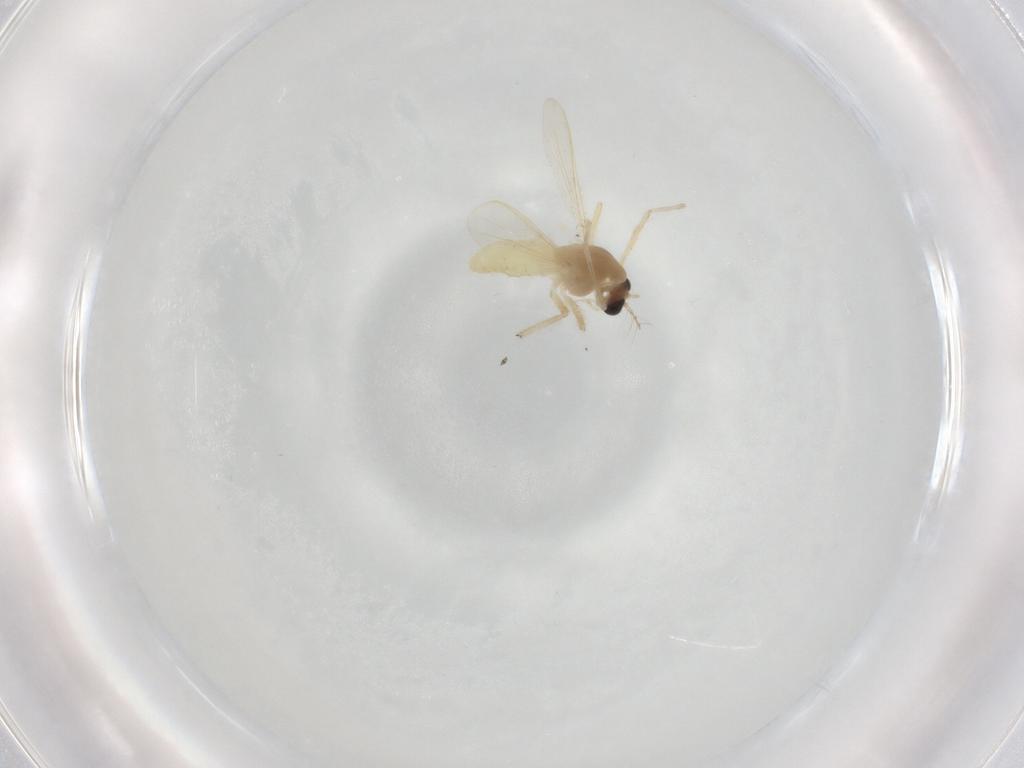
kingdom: Animalia
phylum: Arthropoda
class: Insecta
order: Diptera
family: Chironomidae
